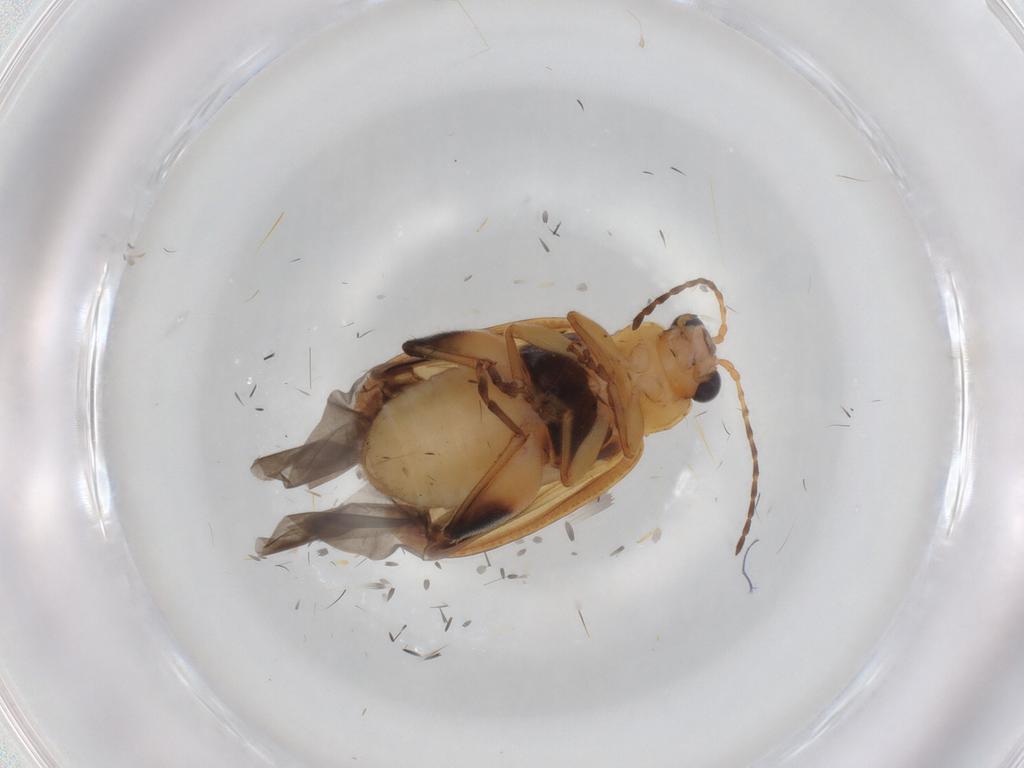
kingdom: Animalia
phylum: Arthropoda
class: Insecta
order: Coleoptera
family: Chrysomelidae
